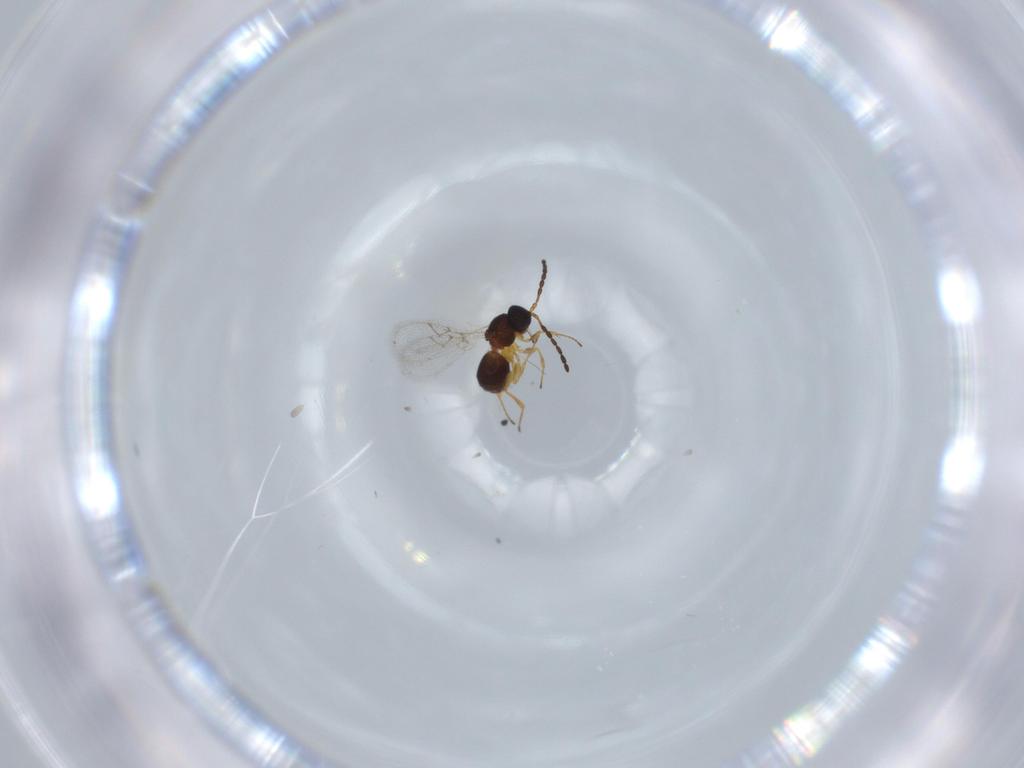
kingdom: Animalia
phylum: Arthropoda
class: Insecta
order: Hymenoptera
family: Figitidae
